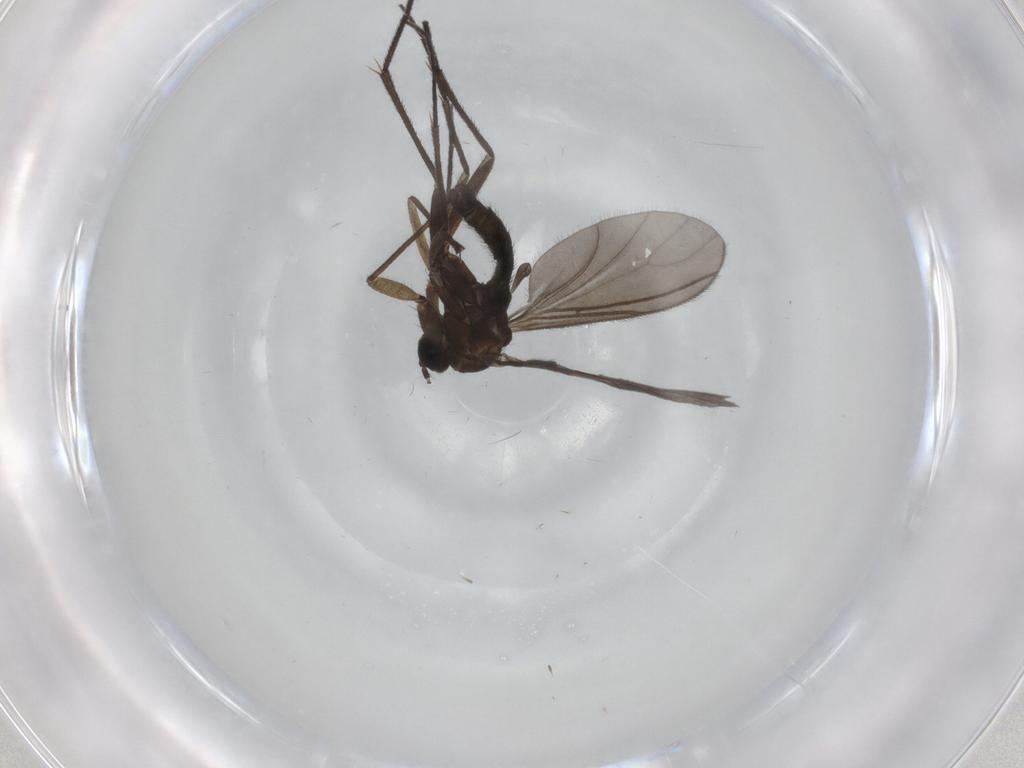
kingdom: Animalia
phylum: Arthropoda
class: Insecta
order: Diptera
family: Sciaridae
